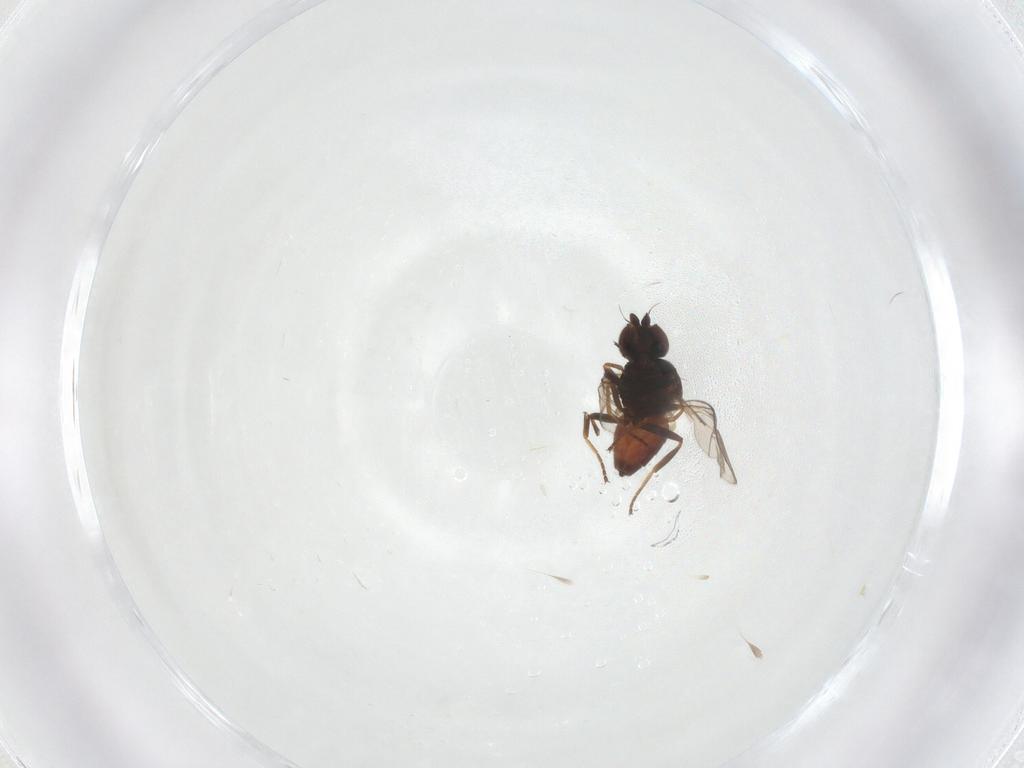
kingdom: Animalia
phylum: Arthropoda
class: Insecta
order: Diptera
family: Chloropidae
